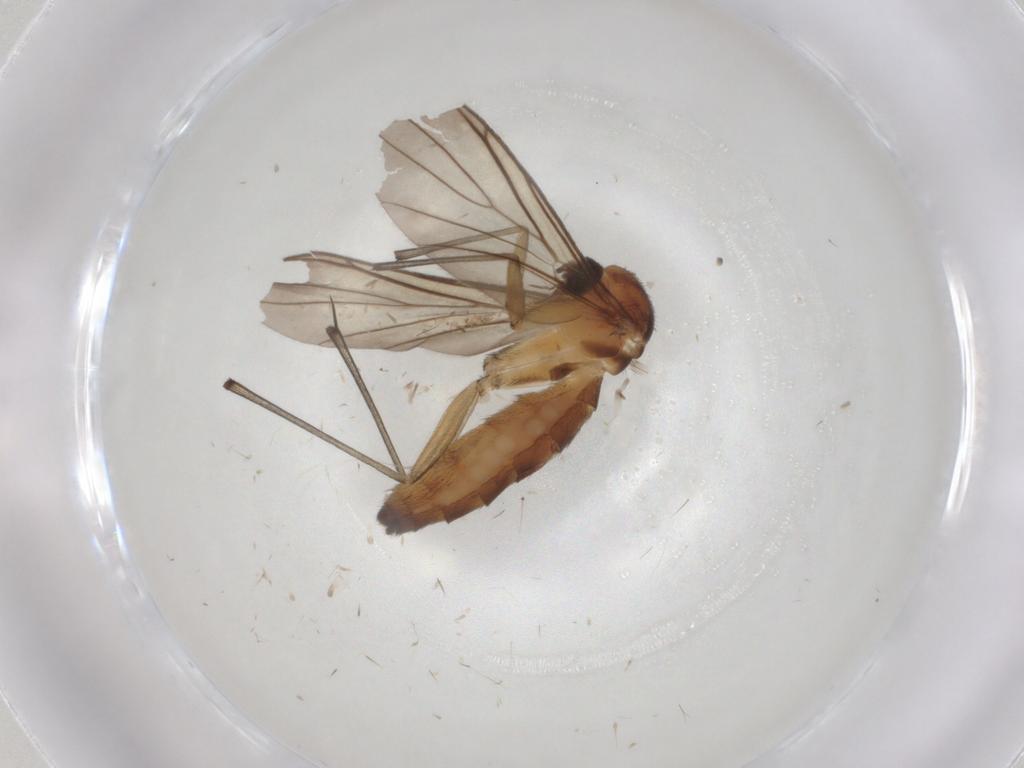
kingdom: Animalia
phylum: Arthropoda
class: Insecta
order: Diptera
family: Keroplatidae
